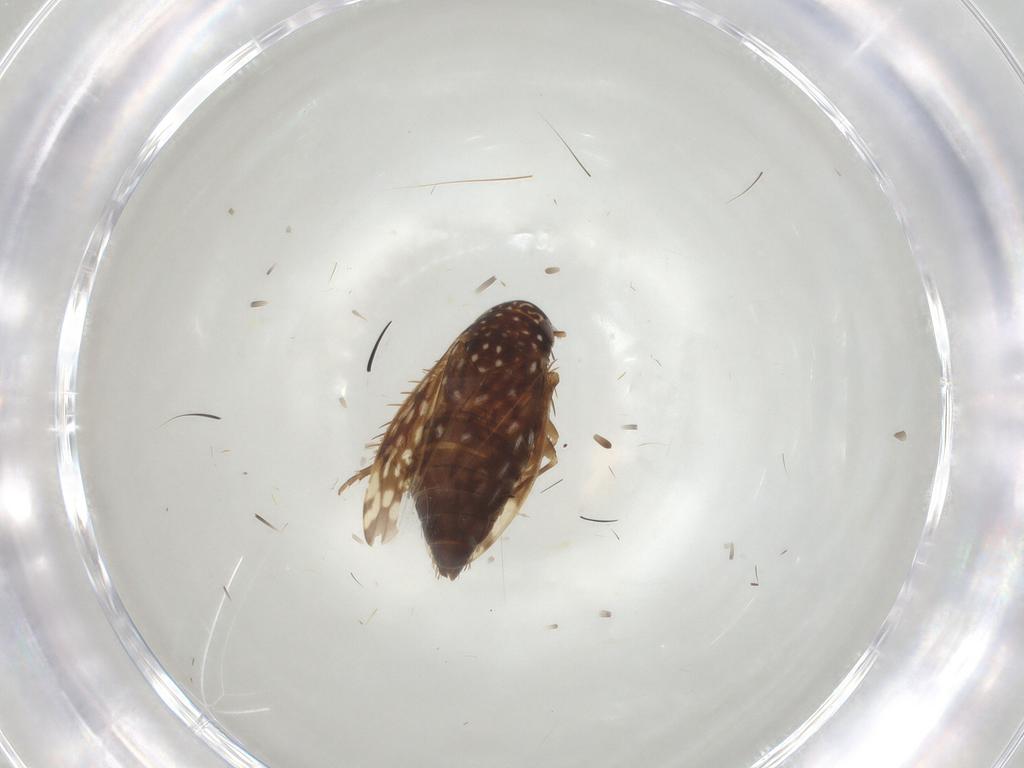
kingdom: Animalia
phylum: Arthropoda
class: Insecta
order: Hemiptera
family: Cicadellidae
